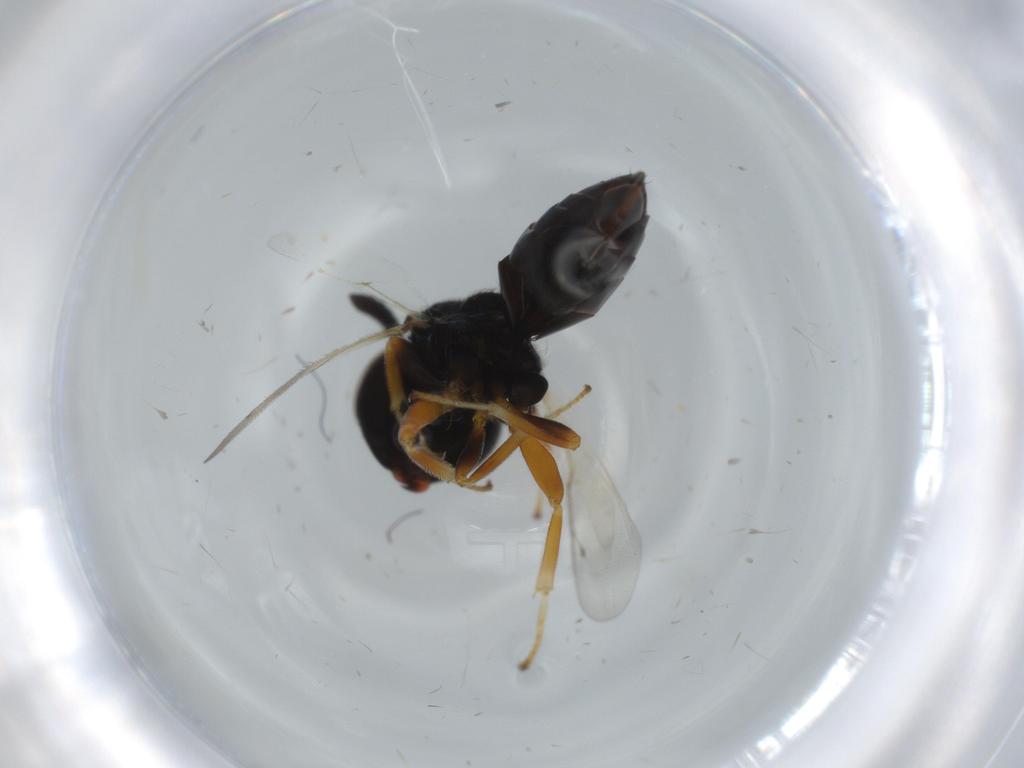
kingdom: Animalia
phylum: Arthropoda
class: Insecta
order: Hymenoptera
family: Agaonidae
